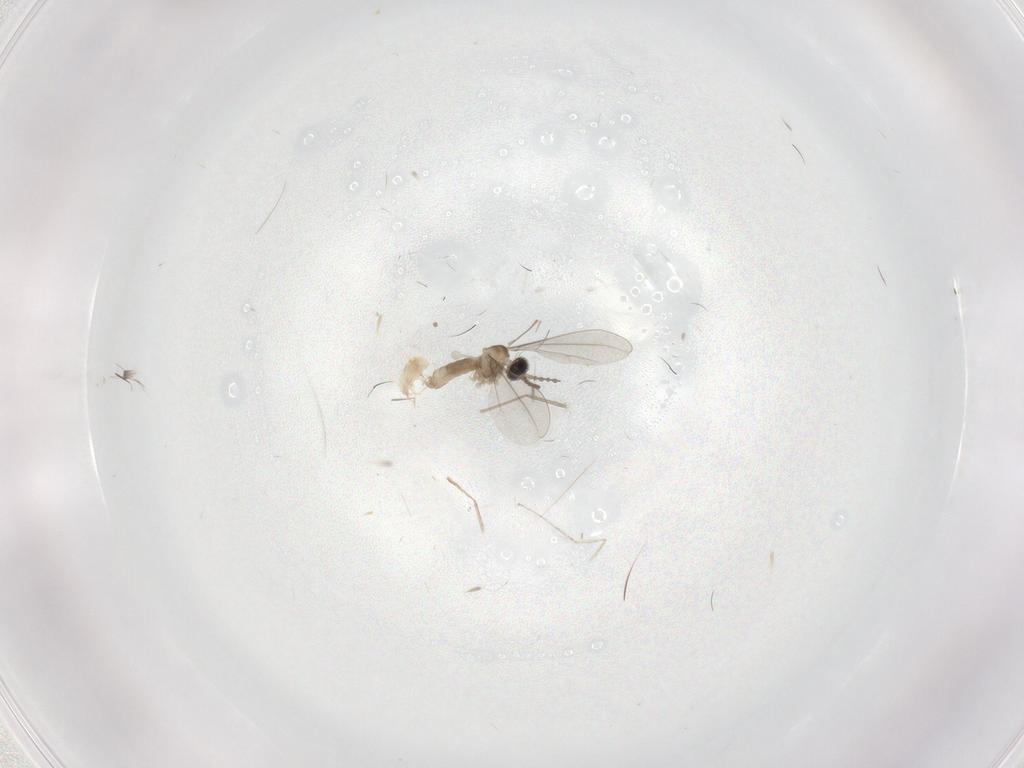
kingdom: Animalia
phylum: Arthropoda
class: Insecta
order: Diptera
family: Cecidomyiidae
